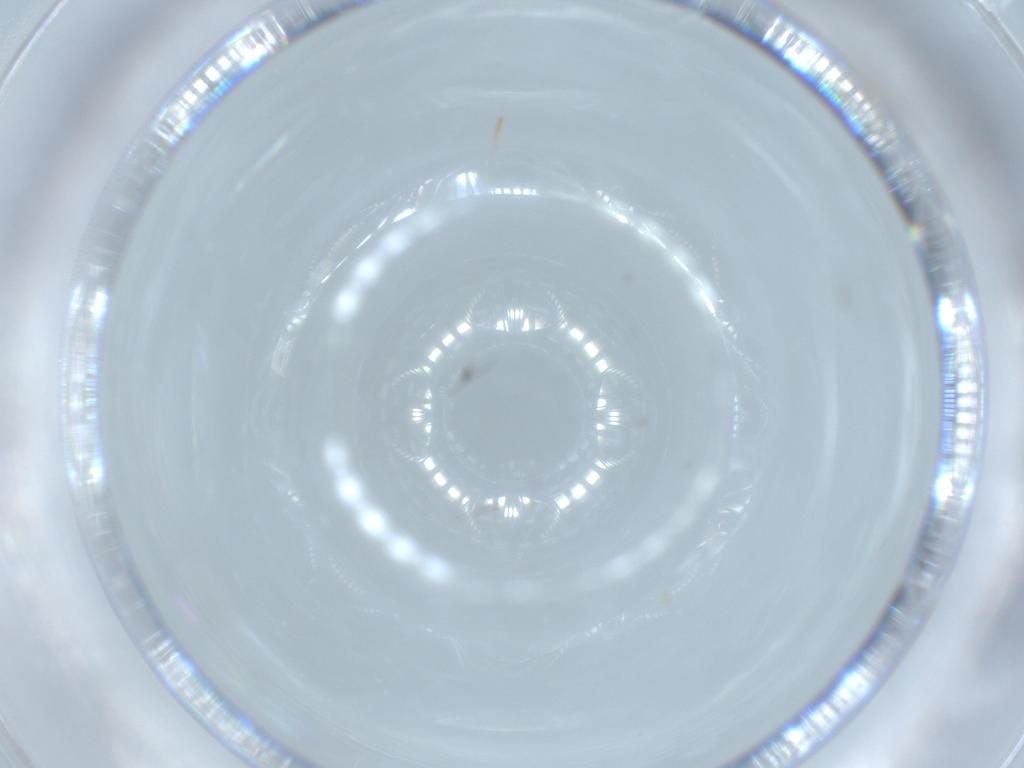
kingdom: Animalia
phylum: Arthropoda
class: Arachnida
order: Trombidiformes
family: Tarsonemidae
